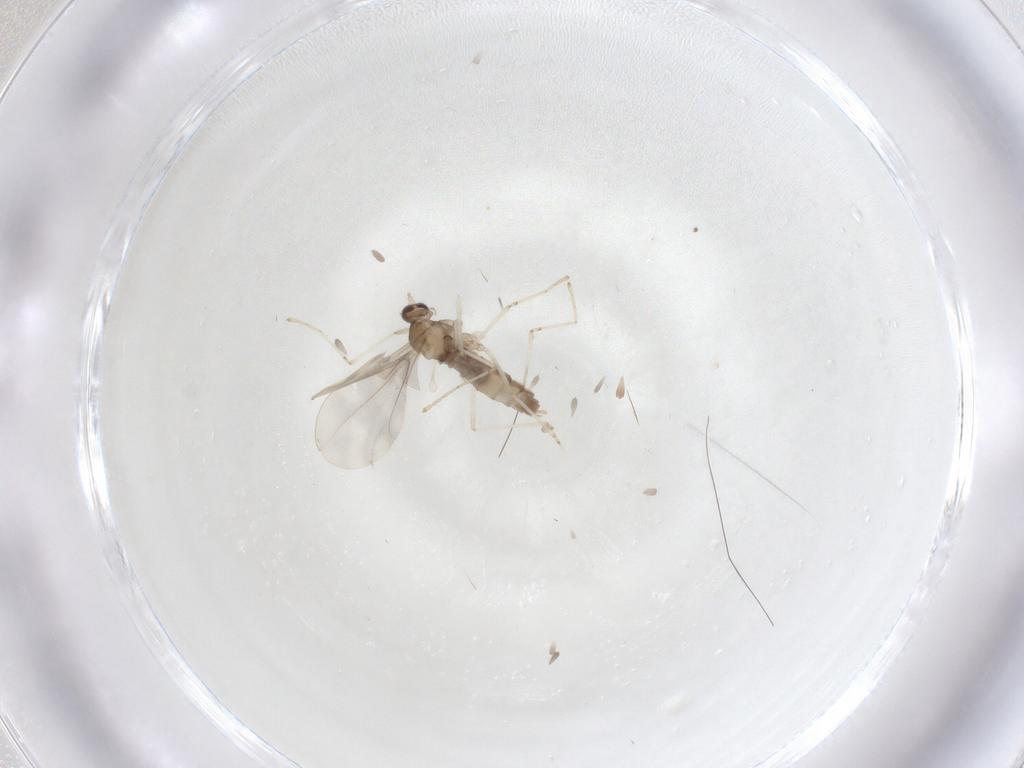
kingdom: Animalia
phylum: Arthropoda
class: Insecta
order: Diptera
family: Cecidomyiidae
